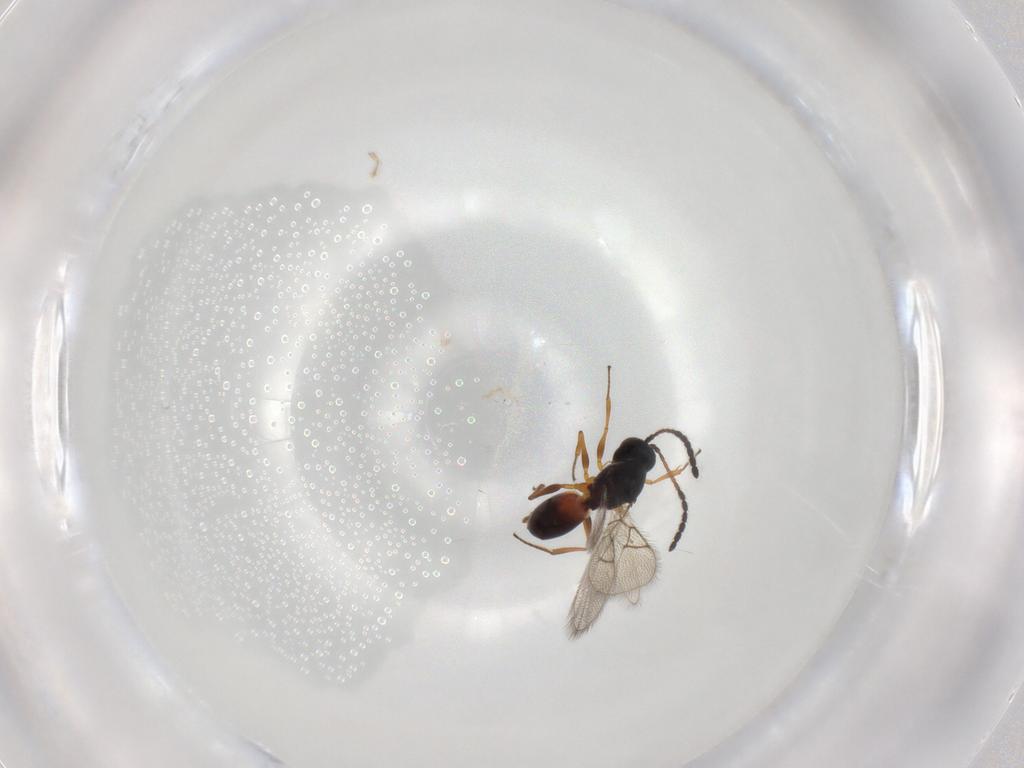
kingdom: Animalia
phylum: Arthropoda
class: Insecta
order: Hymenoptera
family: Figitidae
